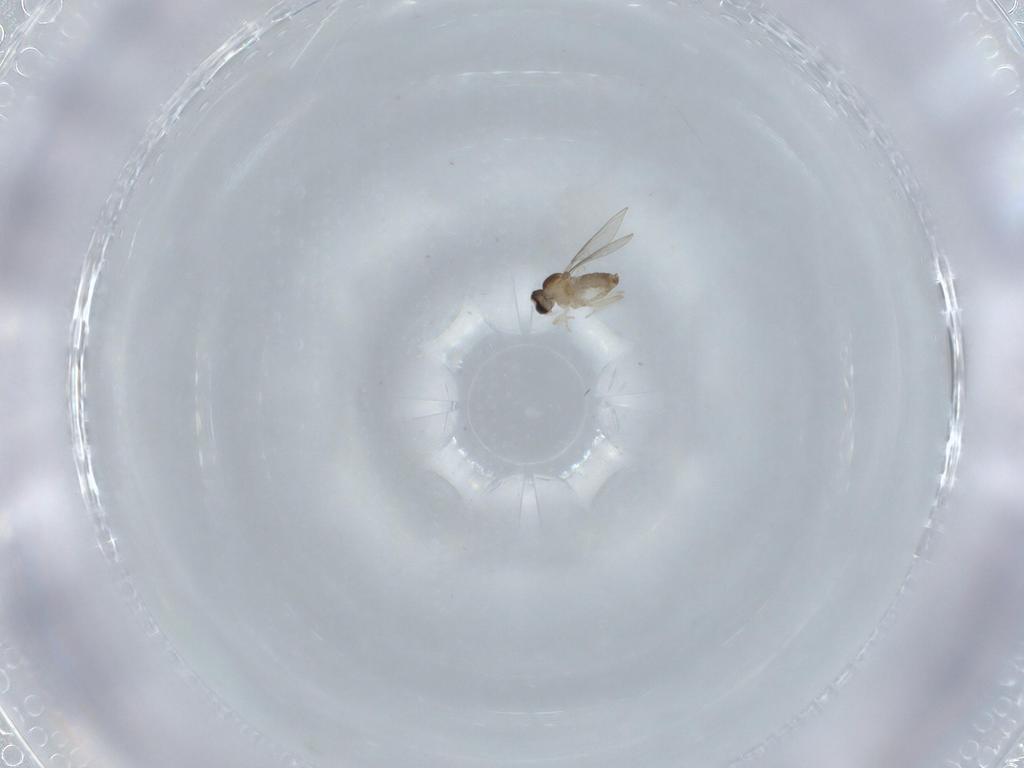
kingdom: Animalia
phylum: Arthropoda
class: Insecta
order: Diptera
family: Cecidomyiidae
